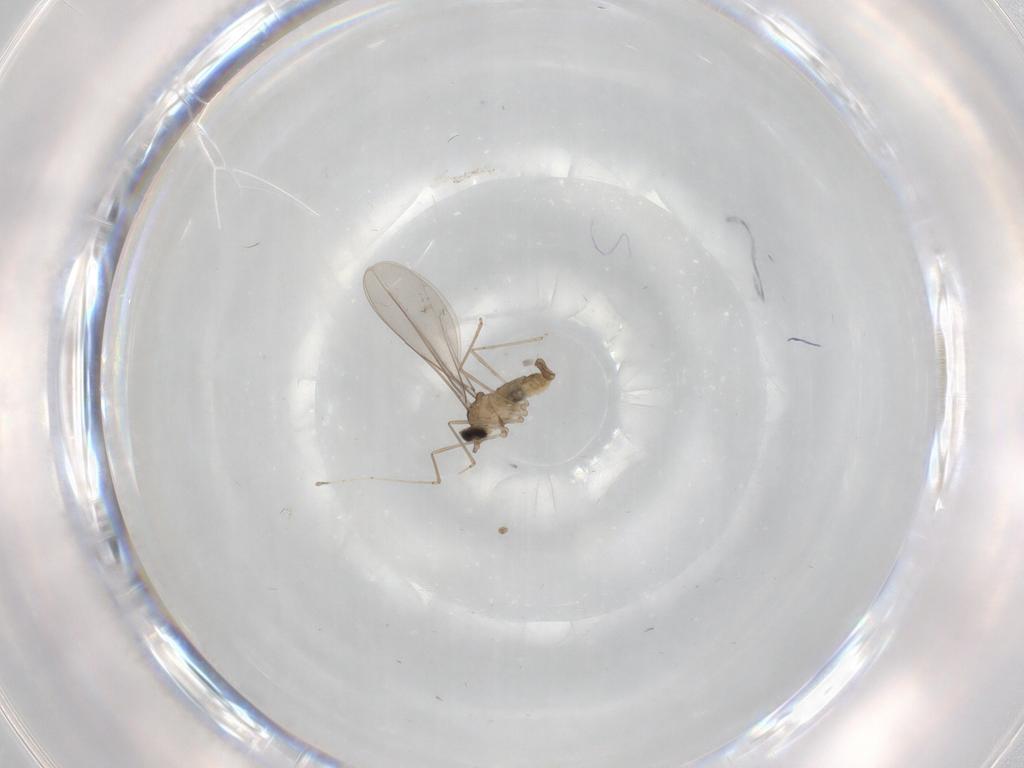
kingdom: Animalia
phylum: Arthropoda
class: Insecta
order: Diptera
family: Cecidomyiidae
